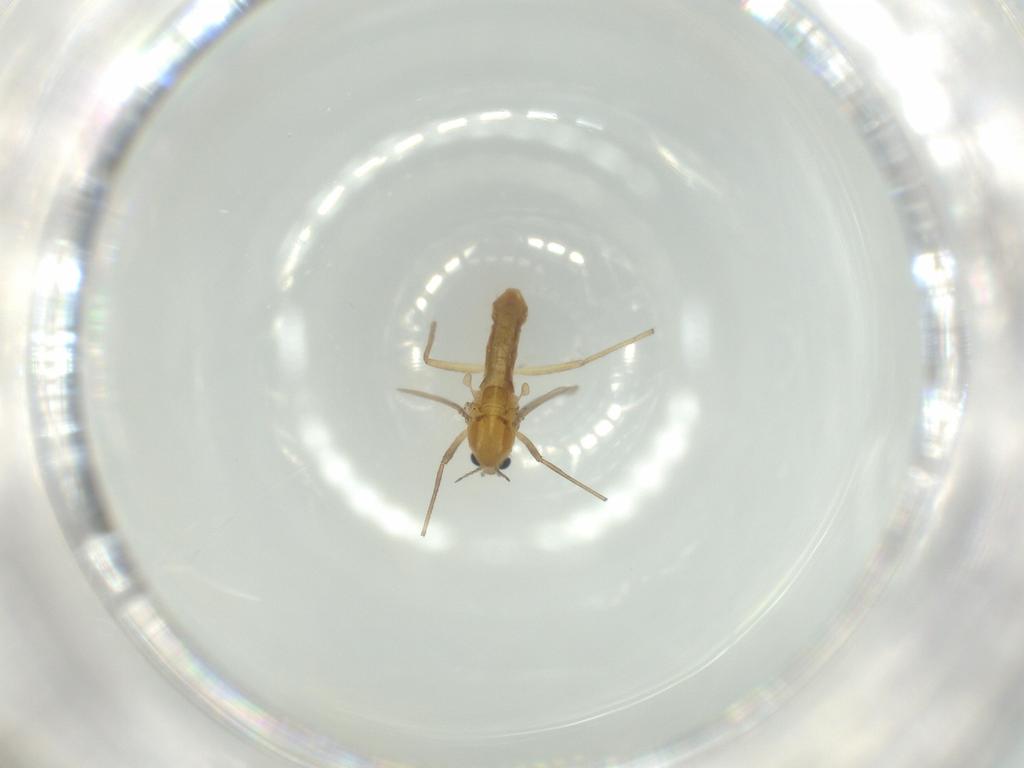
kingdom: Animalia
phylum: Arthropoda
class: Insecta
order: Diptera
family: Chironomidae
